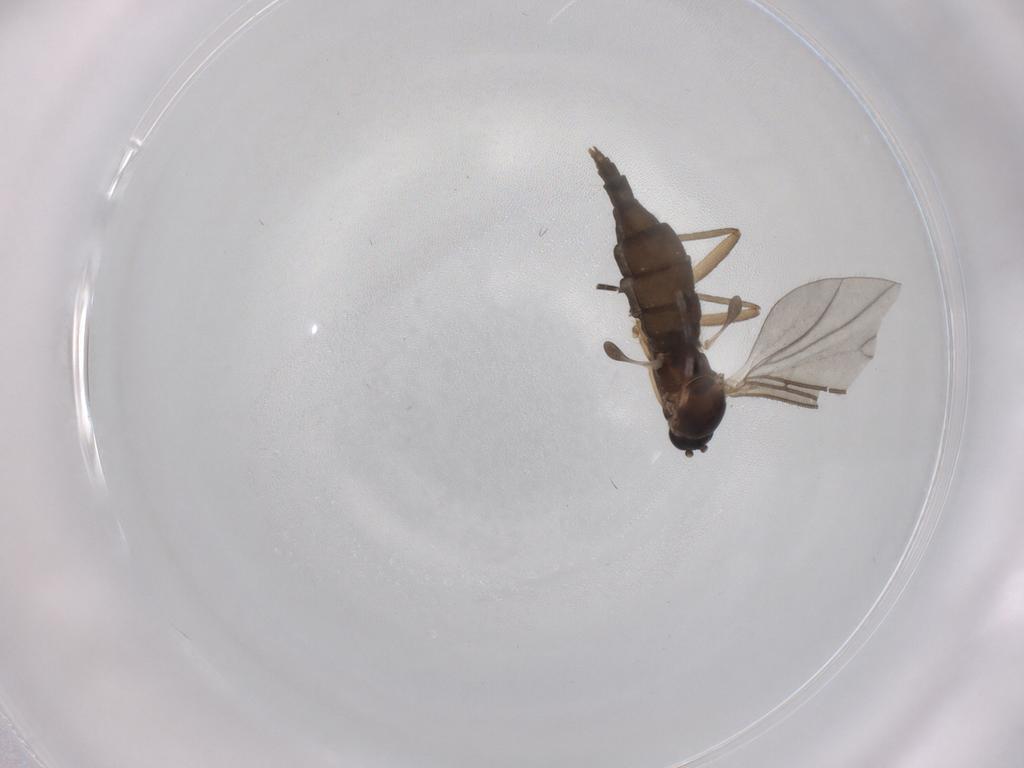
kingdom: Animalia
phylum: Arthropoda
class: Insecta
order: Diptera
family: Sciaridae
